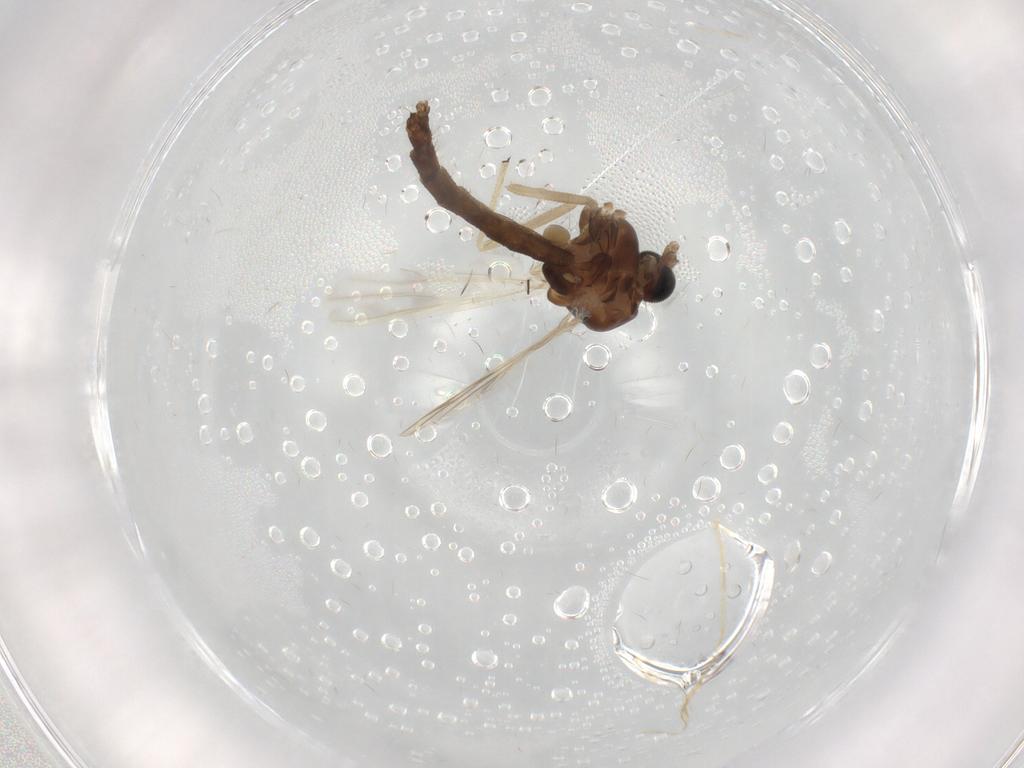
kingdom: Animalia
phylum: Arthropoda
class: Insecta
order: Diptera
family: Chironomidae
